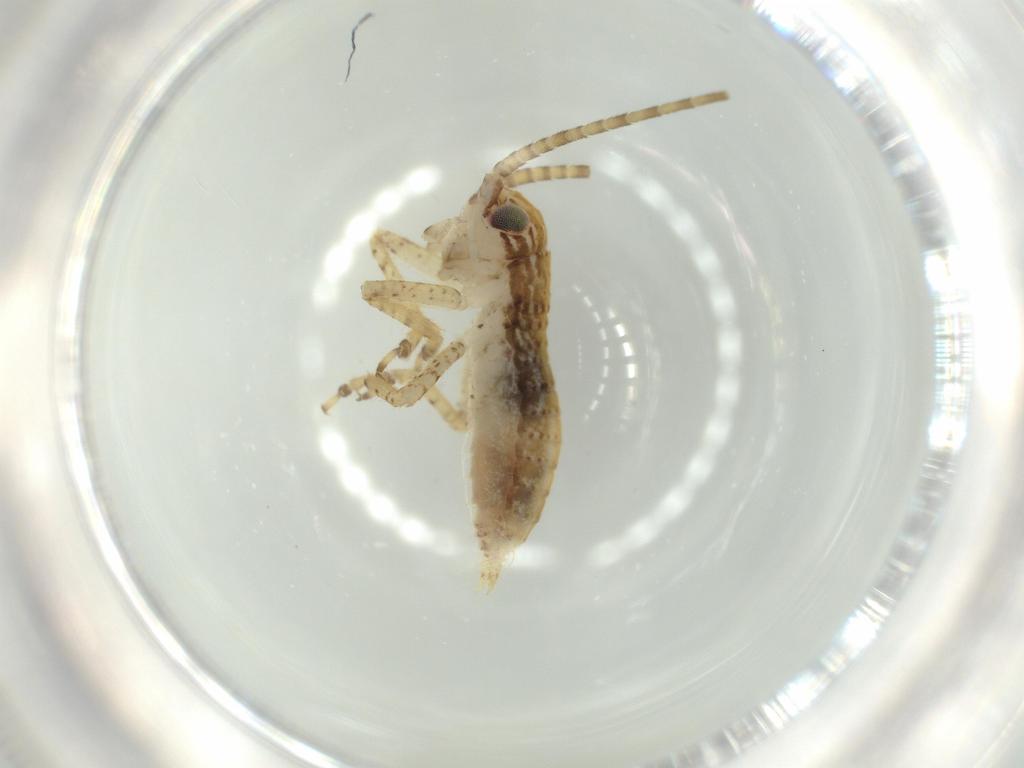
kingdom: Animalia
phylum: Arthropoda
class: Insecta
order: Orthoptera
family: Gryllidae
